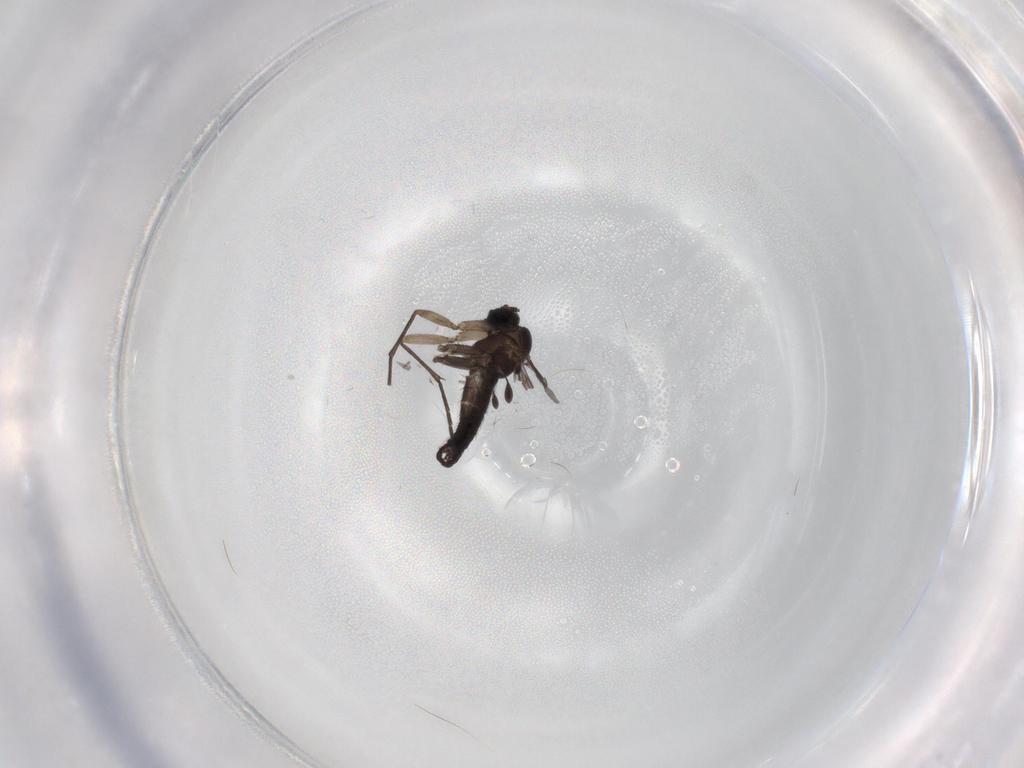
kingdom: Animalia
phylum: Arthropoda
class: Insecta
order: Diptera
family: Sciaridae
